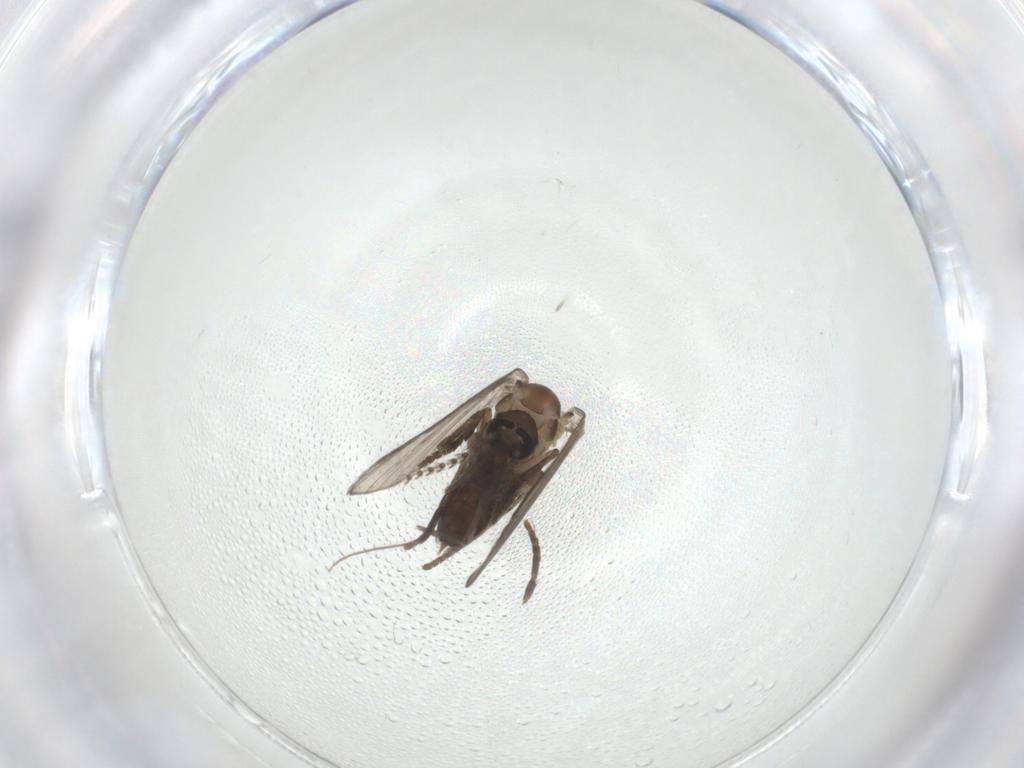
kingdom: Animalia
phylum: Arthropoda
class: Insecta
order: Diptera
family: Psychodidae
